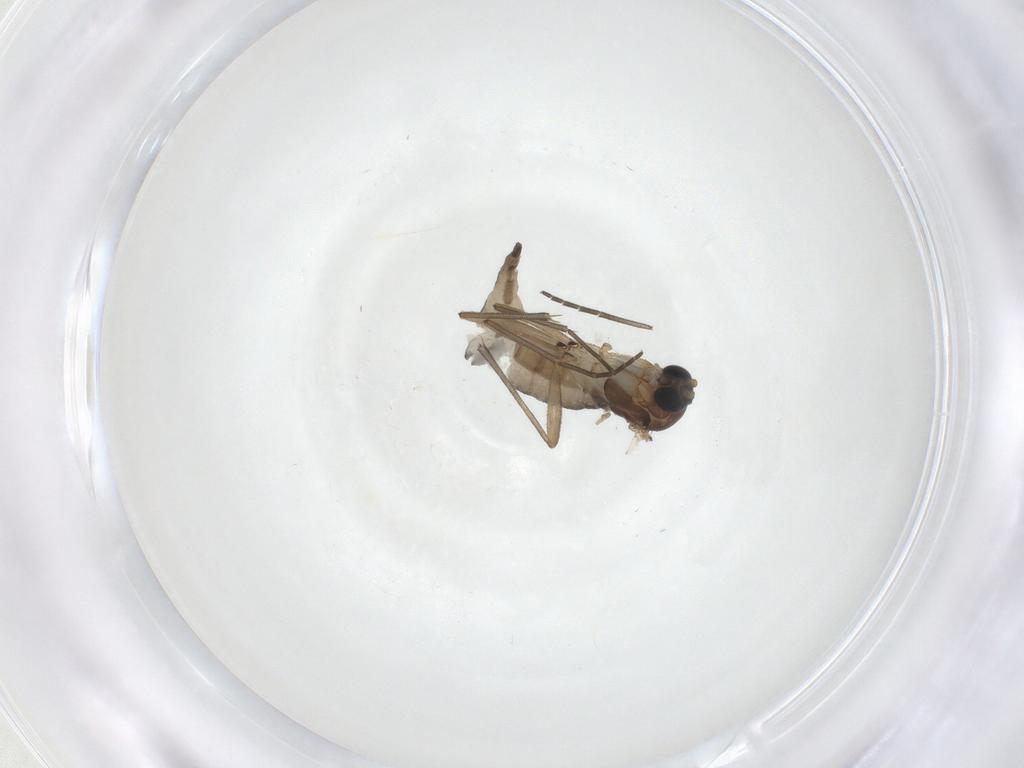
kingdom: Animalia
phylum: Arthropoda
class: Insecta
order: Diptera
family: Sciaridae
